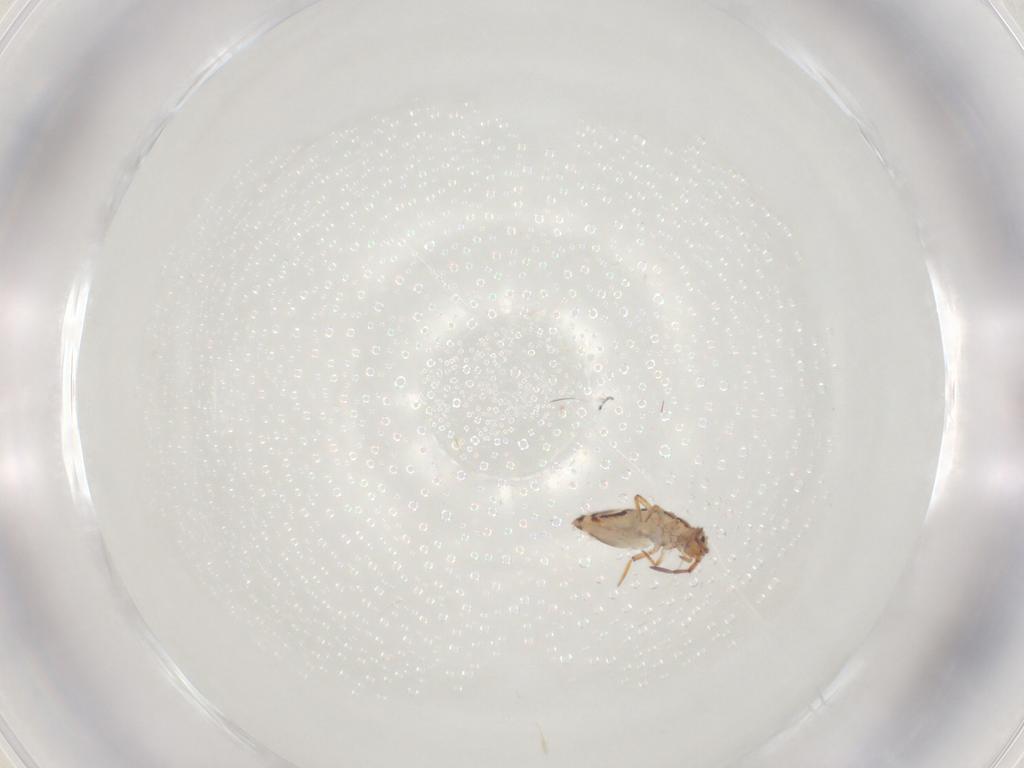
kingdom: Animalia
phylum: Arthropoda
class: Collembola
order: Entomobryomorpha
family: Entomobryidae
